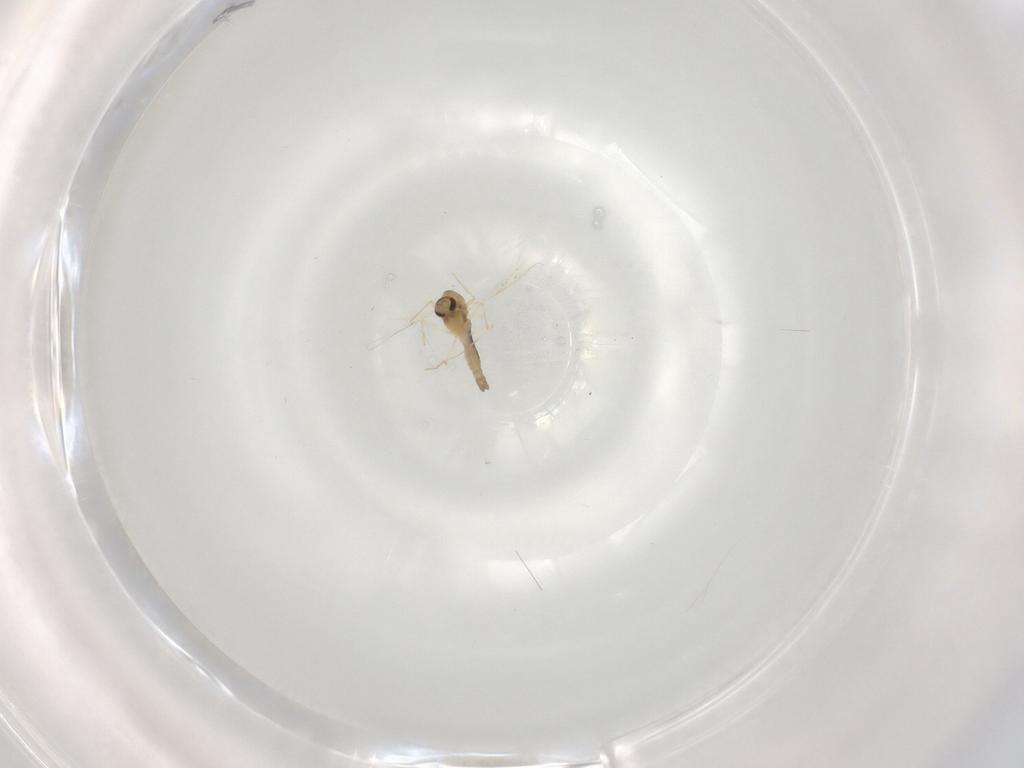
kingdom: Animalia
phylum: Arthropoda
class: Insecta
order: Diptera
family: Chironomidae
